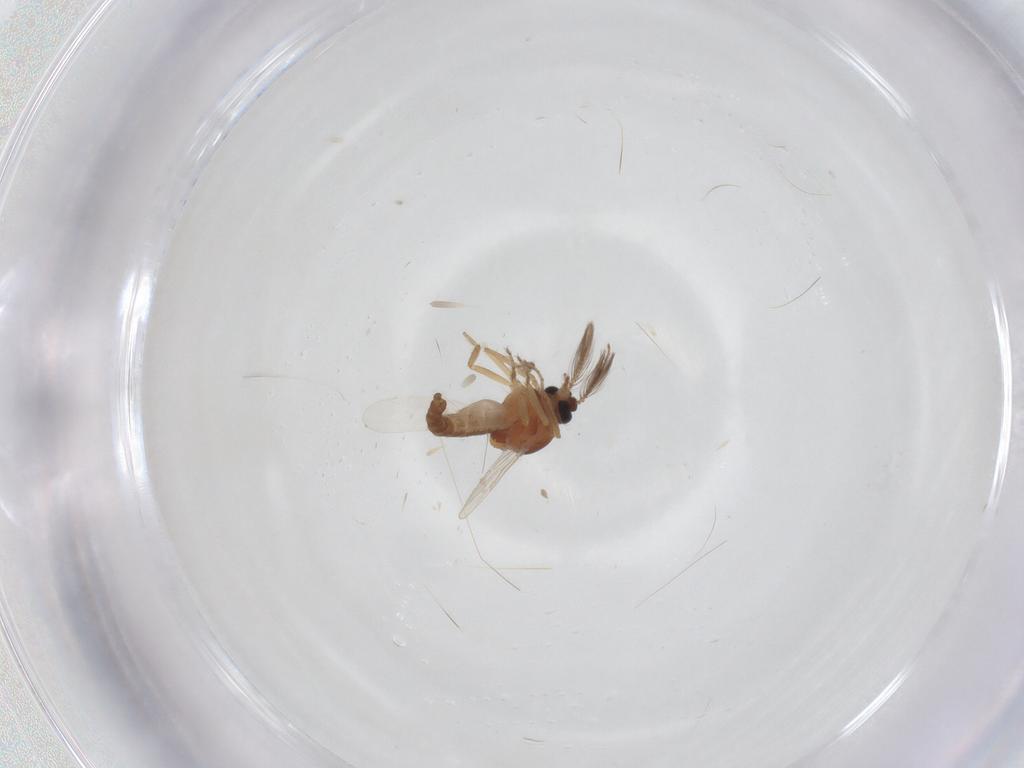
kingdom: Animalia
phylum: Arthropoda
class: Insecta
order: Diptera
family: Ceratopogonidae
